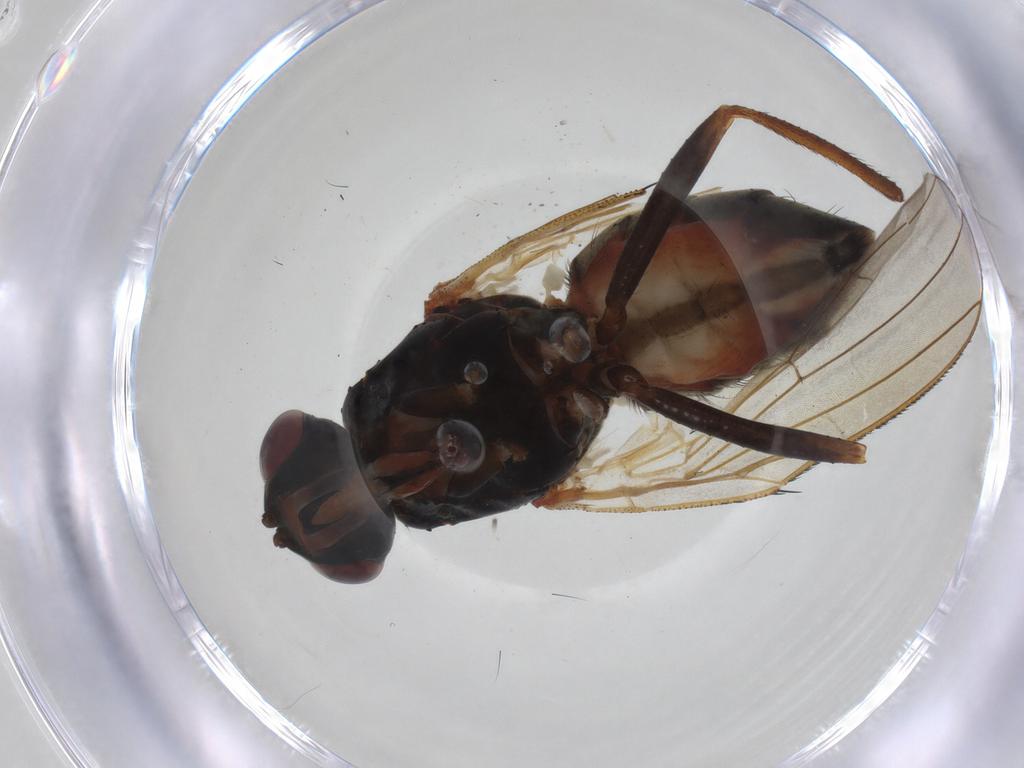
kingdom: Animalia
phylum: Arthropoda
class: Insecta
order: Diptera
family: Anthomyiidae
